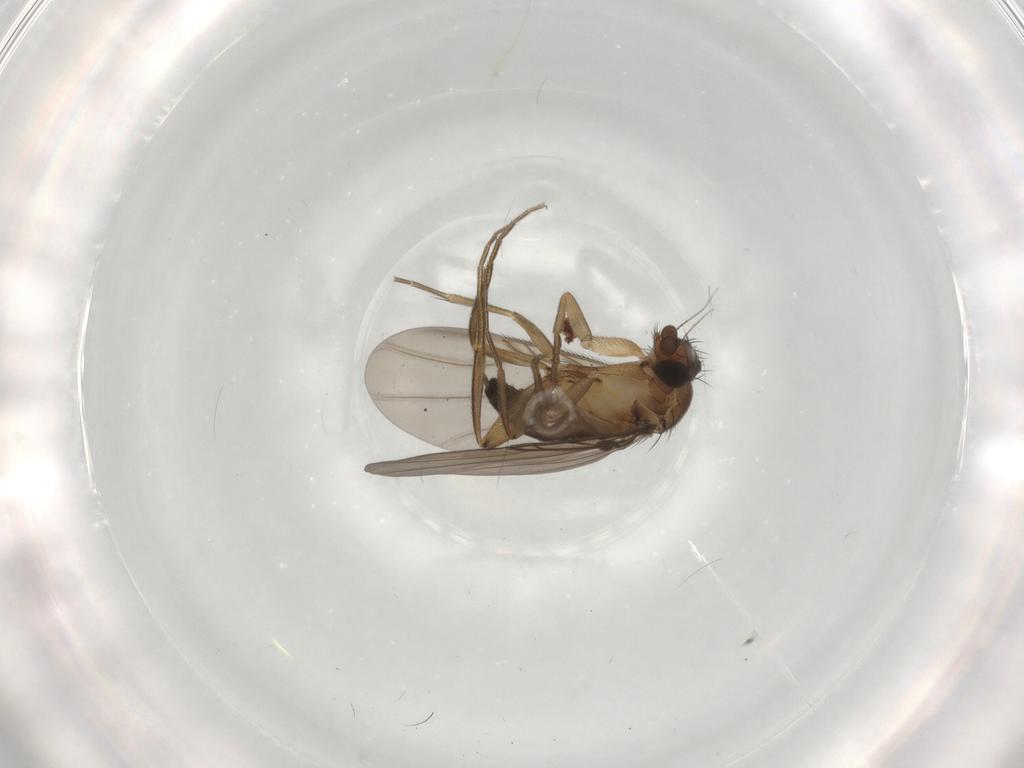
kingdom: Animalia
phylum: Arthropoda
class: Insecta
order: Diptera
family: Phoridae
